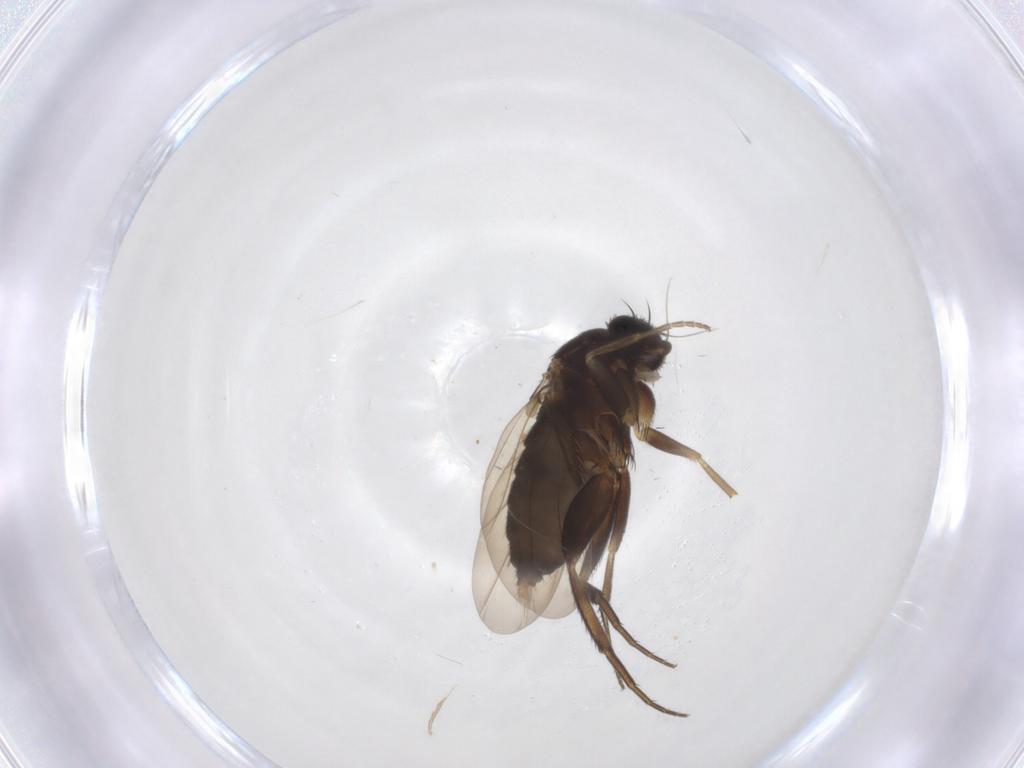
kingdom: Animalia
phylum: Arthropoda
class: Insecta
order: Diptera
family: Phoridae
